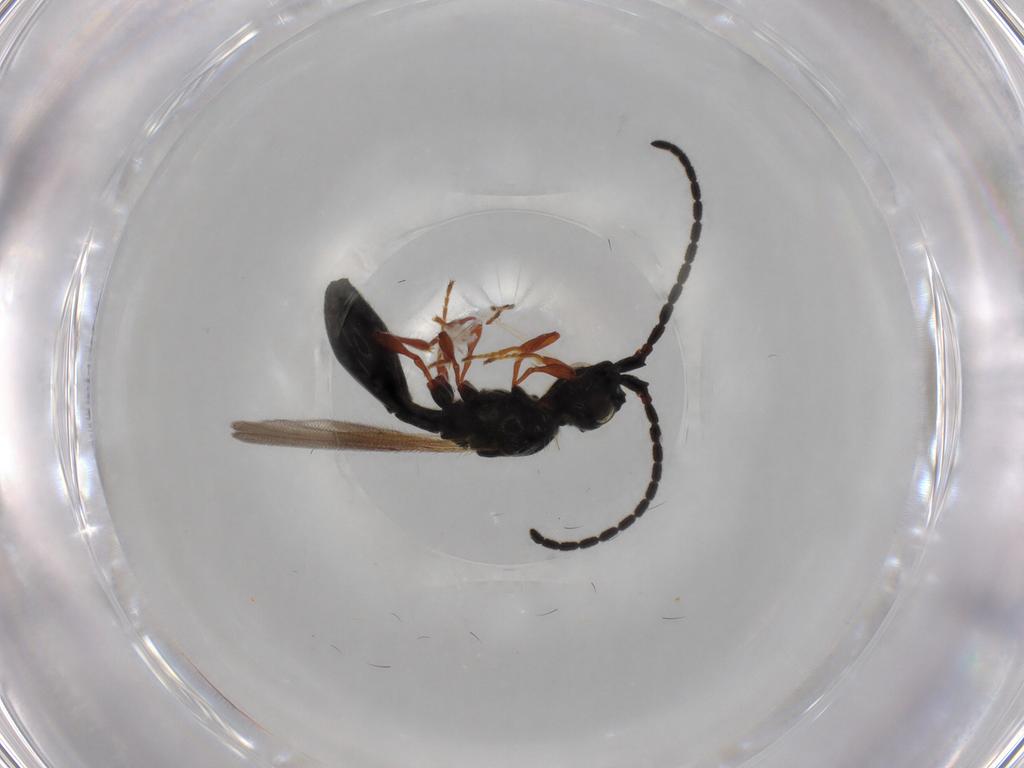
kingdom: Animalia
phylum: Arthropoda
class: Insecta
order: Hymenoptera
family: Diapriidae
